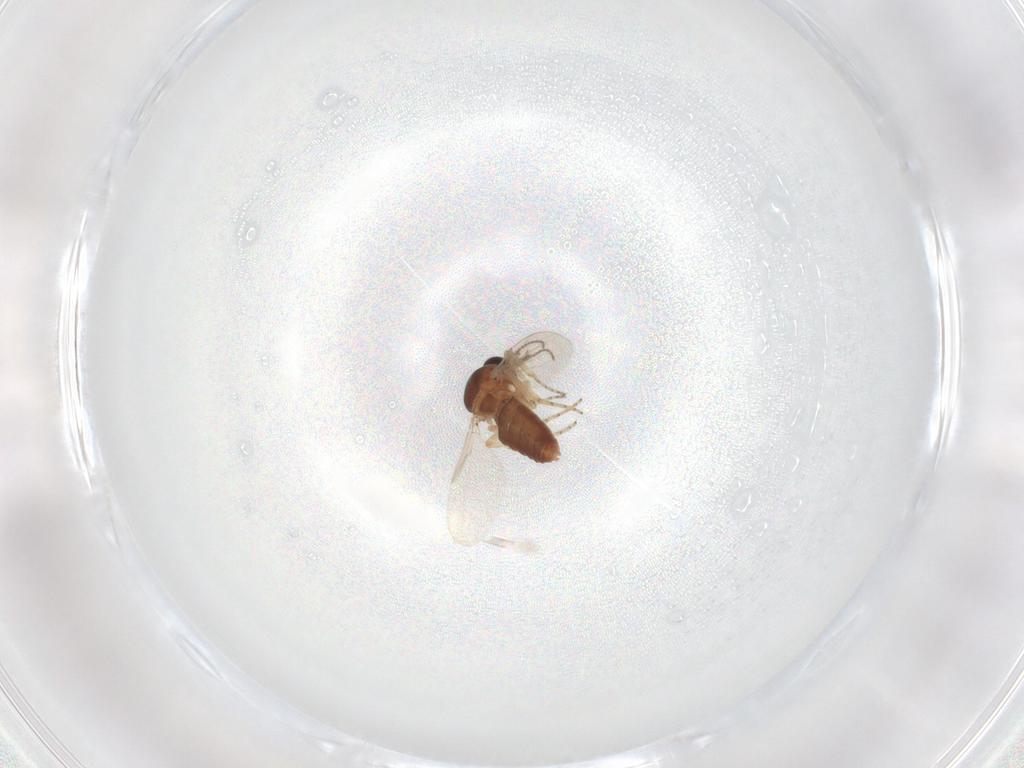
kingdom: Animalia
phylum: Arthropoda
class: Insecta
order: Diptera
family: Ceratopogonidae
